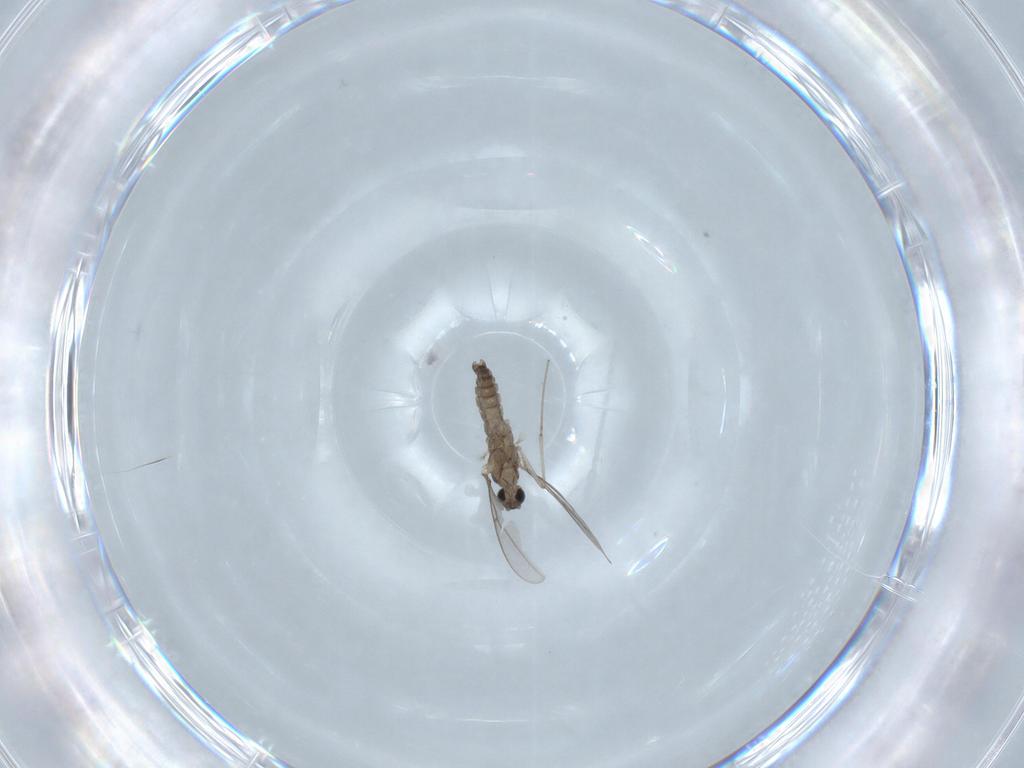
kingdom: Animalia
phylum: Arthropoda
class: Insecta
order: Diptera
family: Cecidomyiidae
